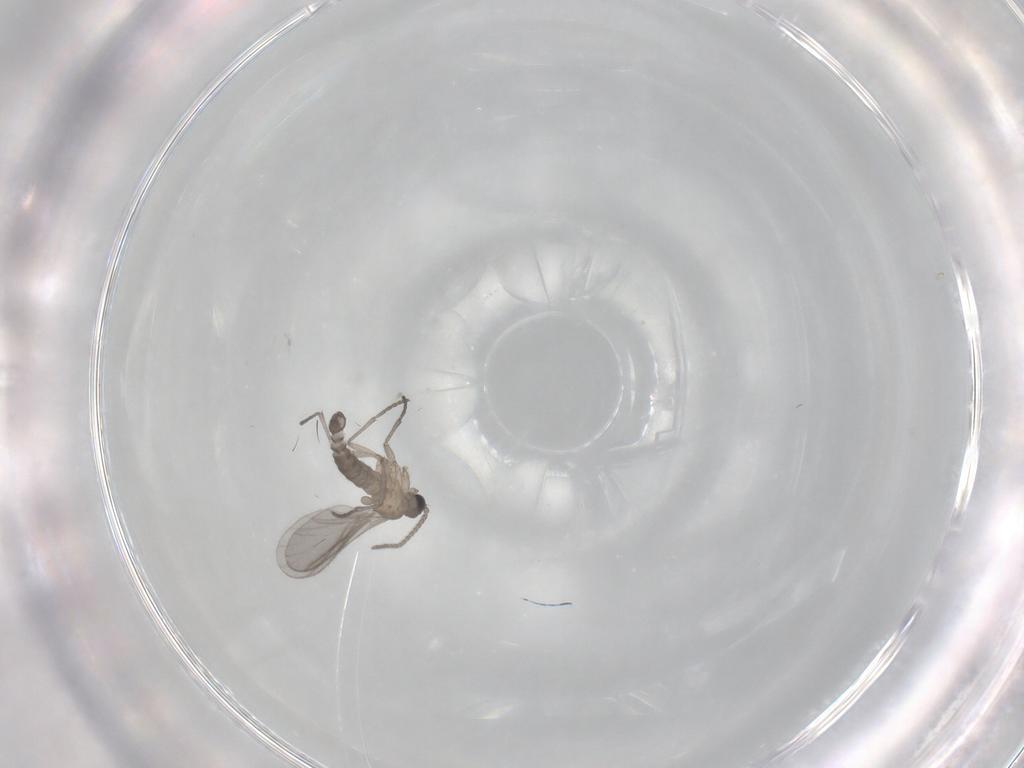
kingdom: Animalia
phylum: Arthropoda
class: Insecta
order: Diptera
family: Sciaridae
